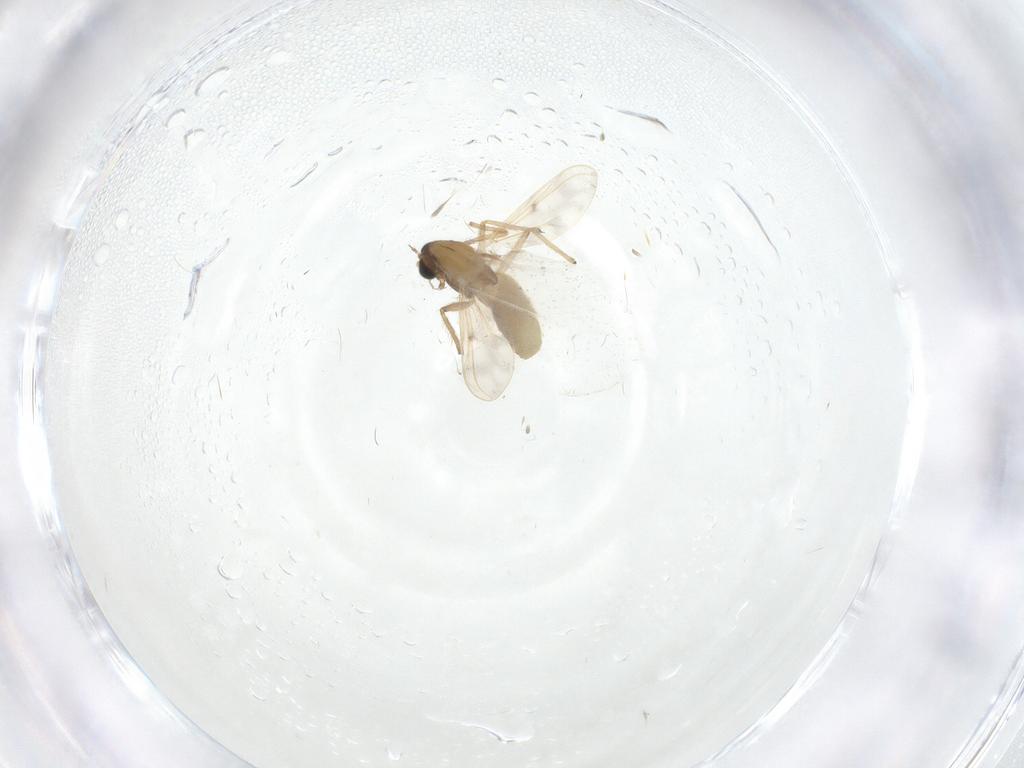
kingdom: Animalia
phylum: Arthropoda
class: Insecta
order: Diptera
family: Chironomidae
